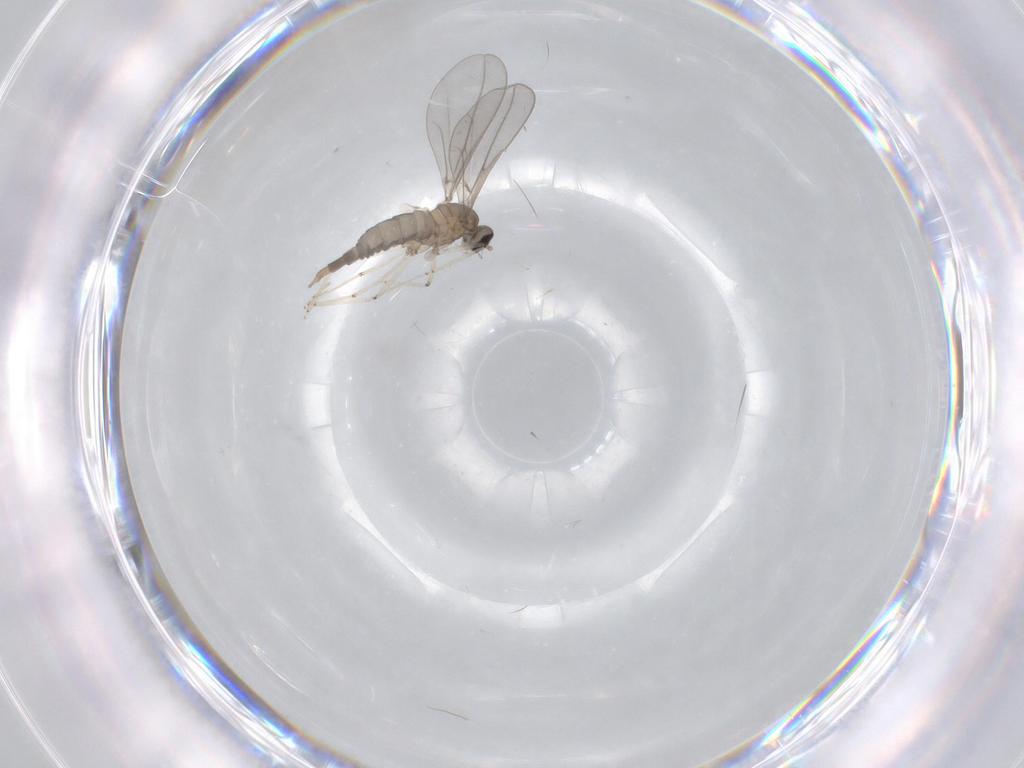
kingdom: Animalia
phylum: Arthropoda
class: Insecta
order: Diptera
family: Cecidomyiidae
